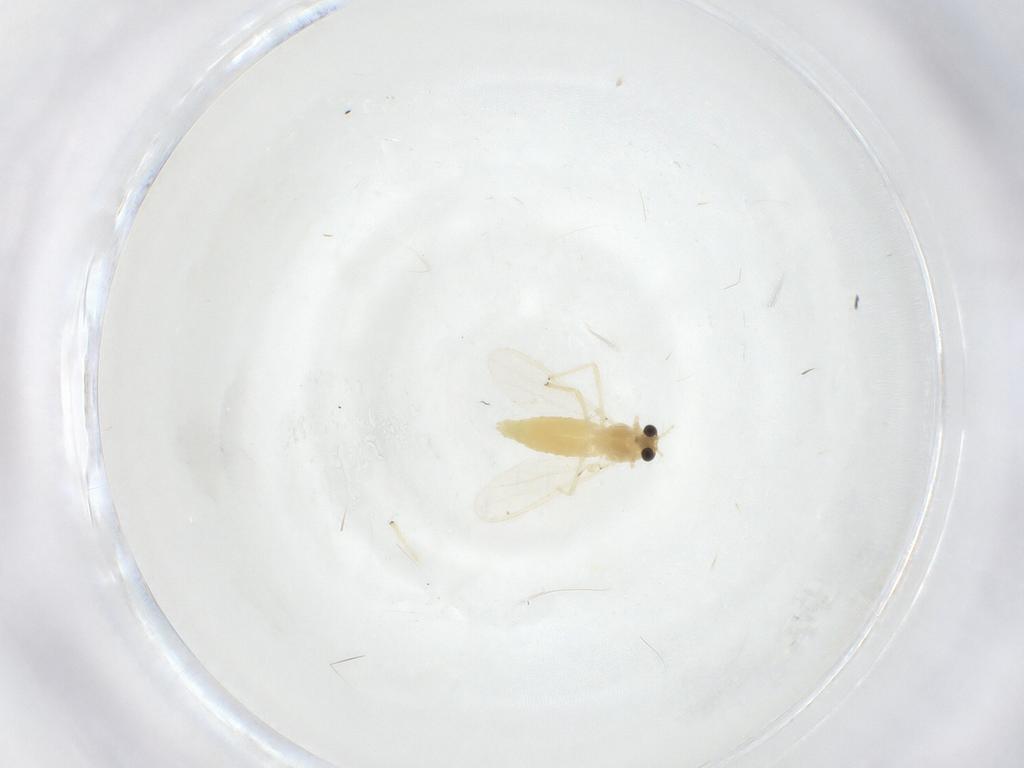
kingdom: Animalia
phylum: Arthropoda
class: Insecta
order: Diptera
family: Chironomidae
